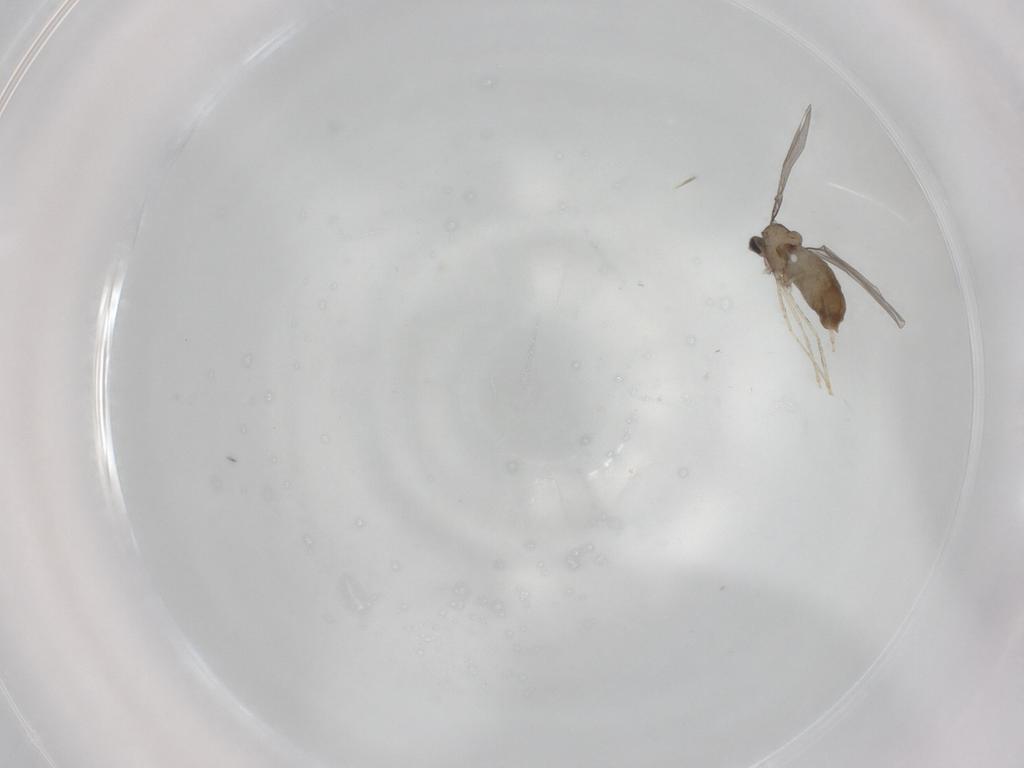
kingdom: Animalia
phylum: Arthropoda
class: Insecta
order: Diptera
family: Cecidomyiidae
